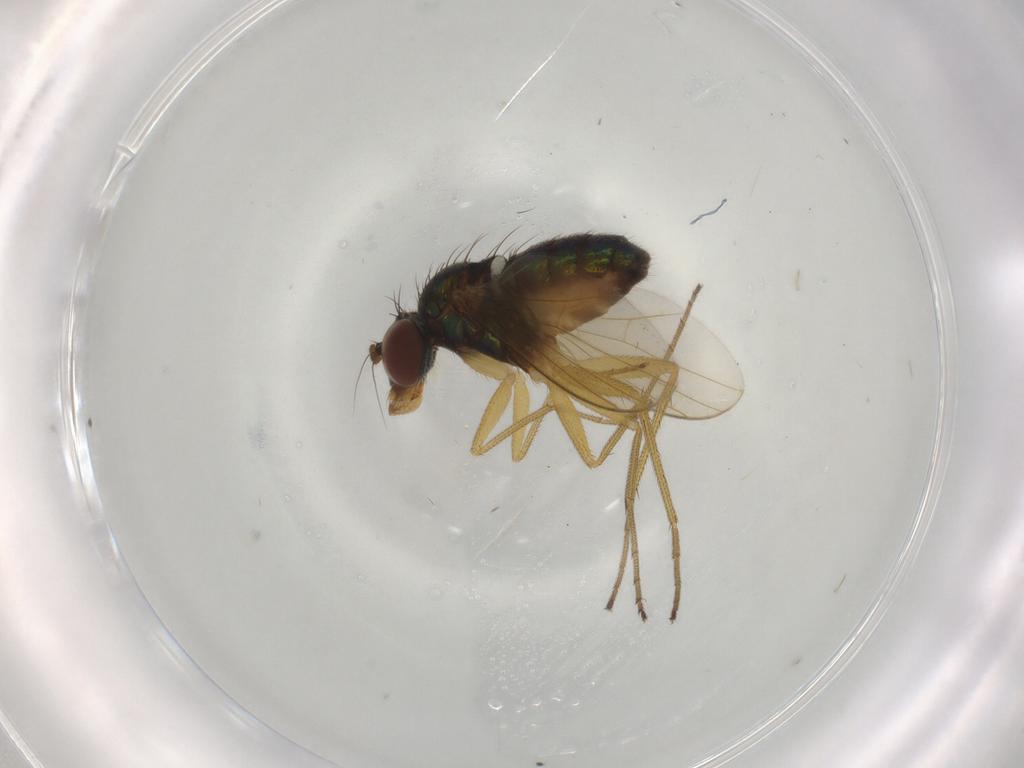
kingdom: Animalia
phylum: Arthropoda
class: Insecta
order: Diptera
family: Dolichopodidae
